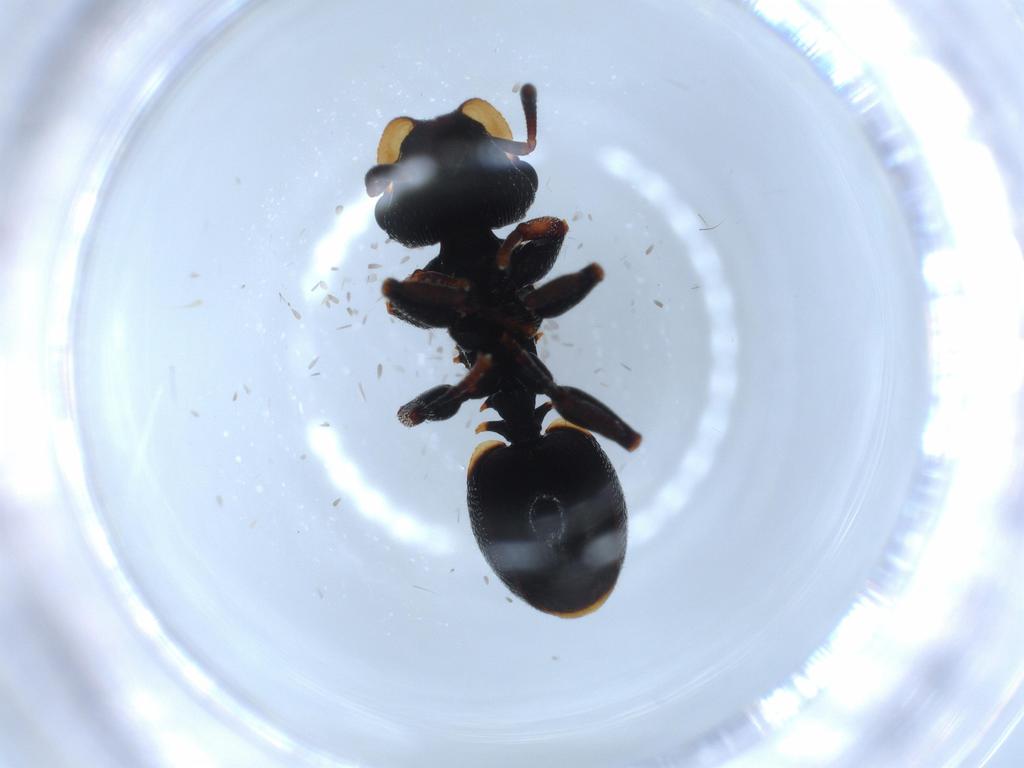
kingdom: Animalia
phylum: Arthropoda
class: Insecta
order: Hymenoptera
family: Formicidae
